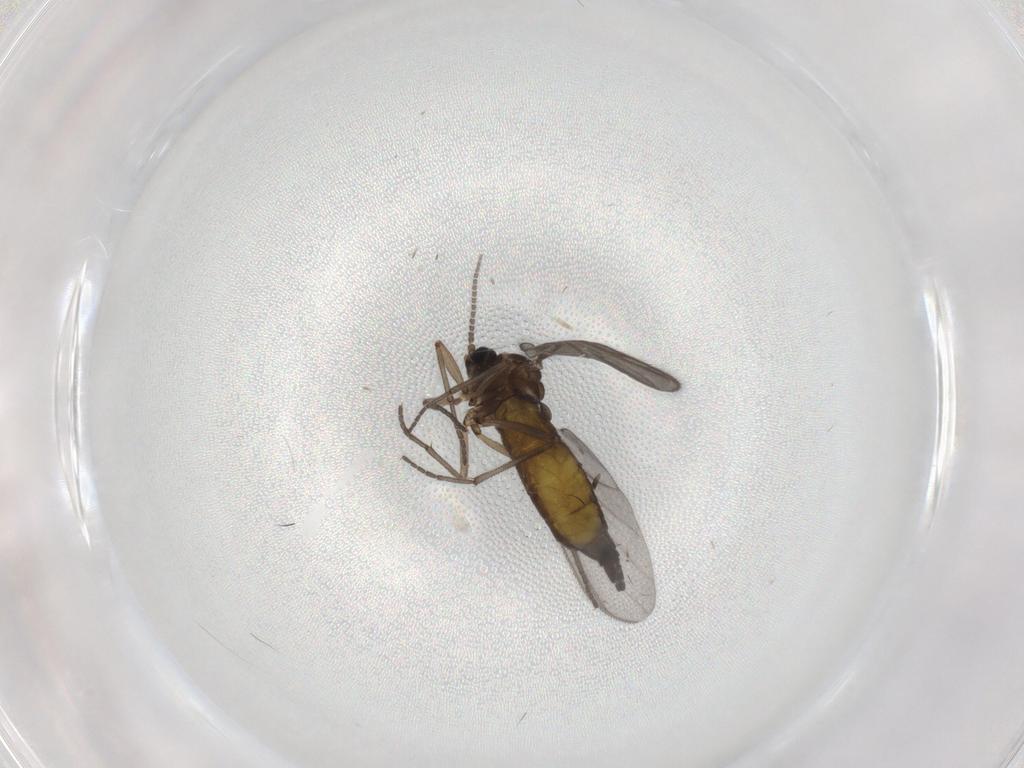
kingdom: Animalia
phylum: Arthropoda
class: Insecta
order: Diptera
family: Sciaridae
